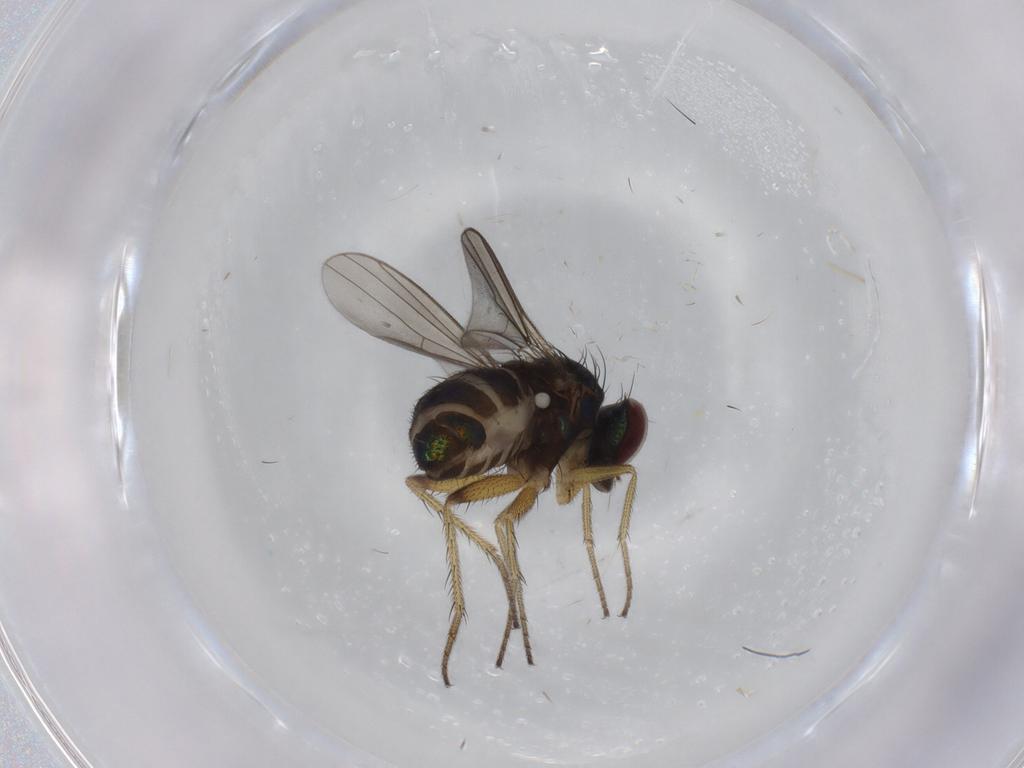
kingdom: Animalia
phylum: Arthropoda
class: Insecta
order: Diptera
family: Dolichopodidae
